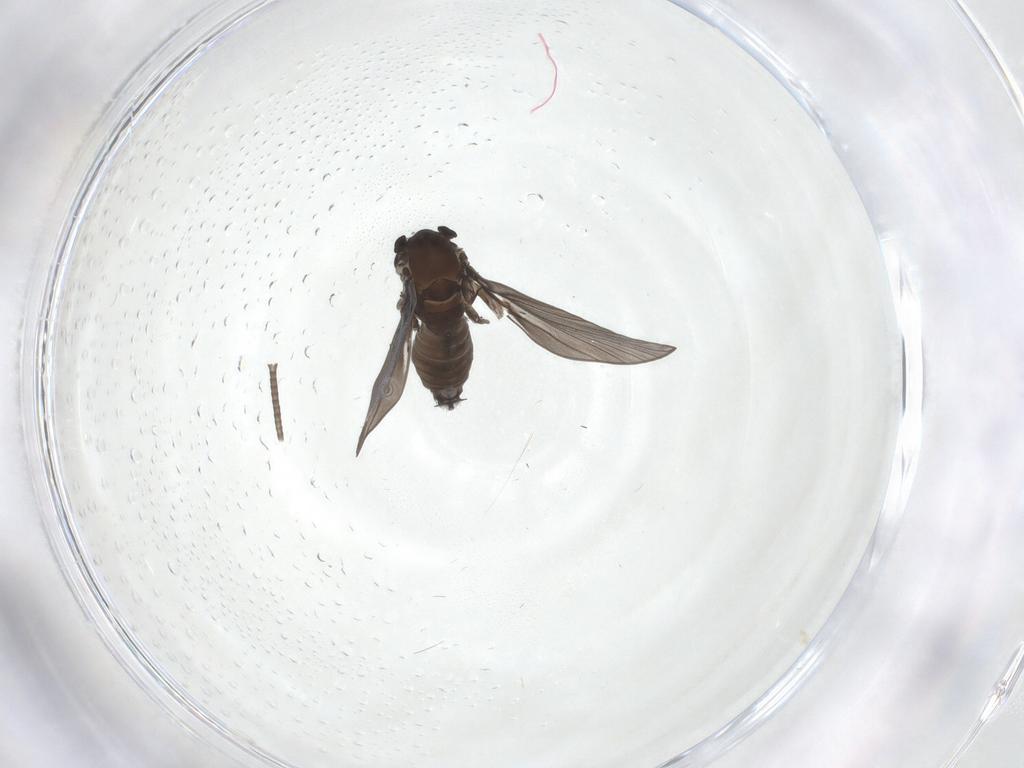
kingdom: Animalia
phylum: Arthropoda
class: Insecta
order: Diptera
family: Psychodidae
